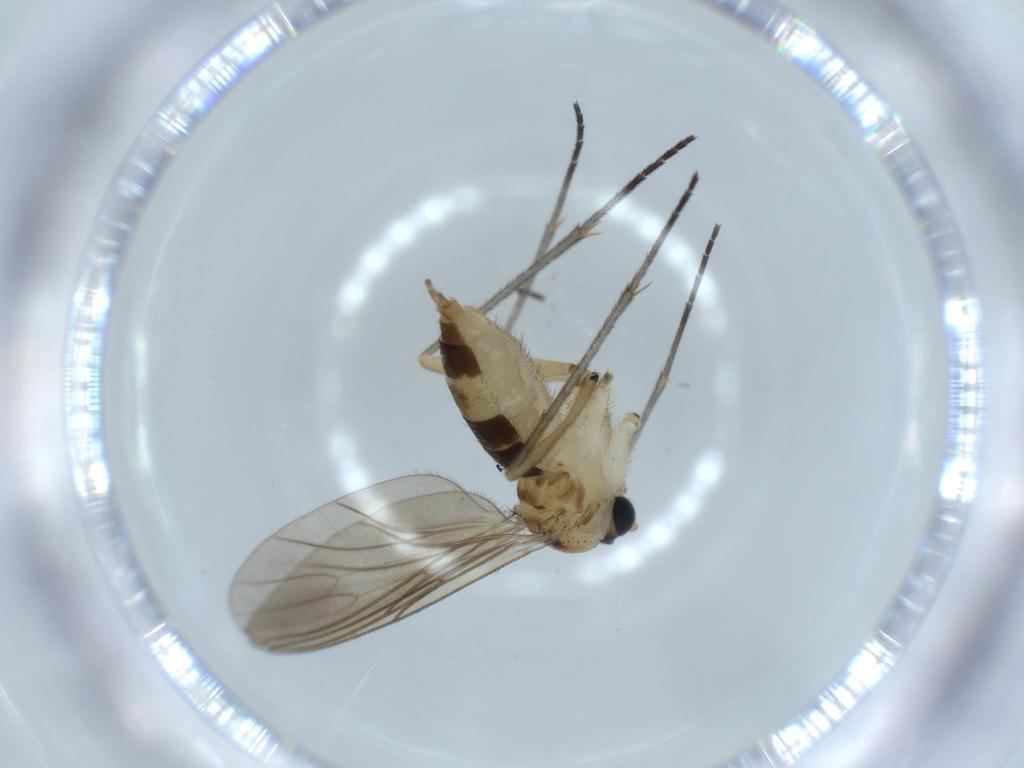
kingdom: Animalia
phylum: Arthropoda
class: Insecta
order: Diptera
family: Sciaridae
